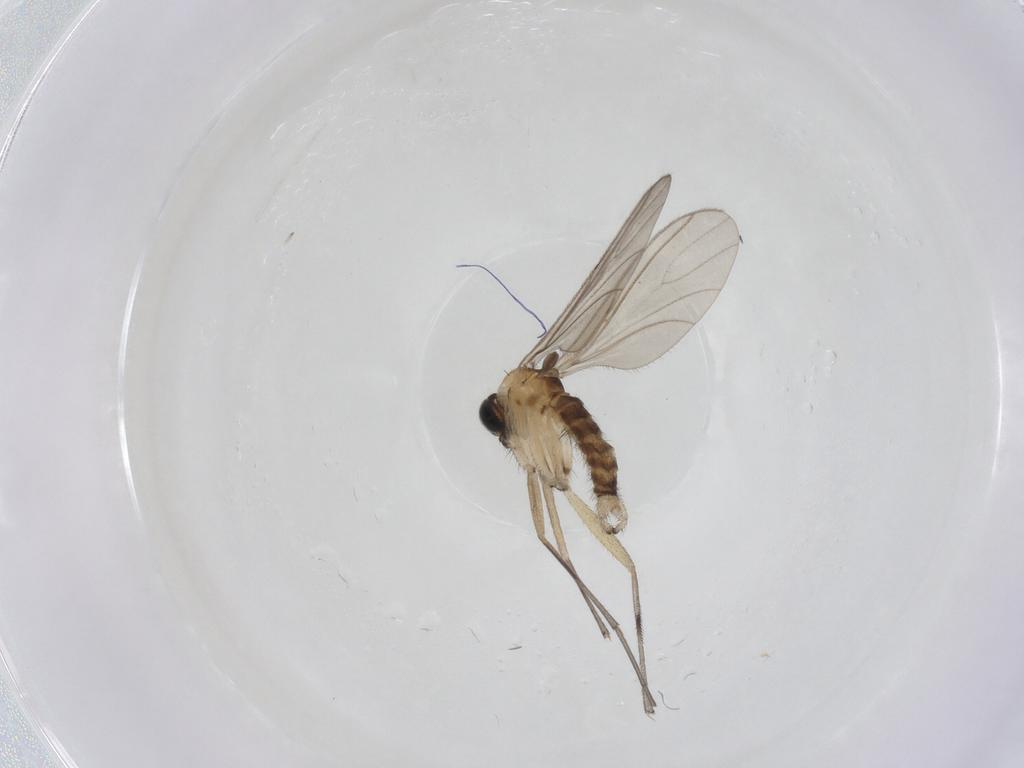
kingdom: Animalia
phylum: Arthropoda
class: Insecta
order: Diptera
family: Sciaridae
